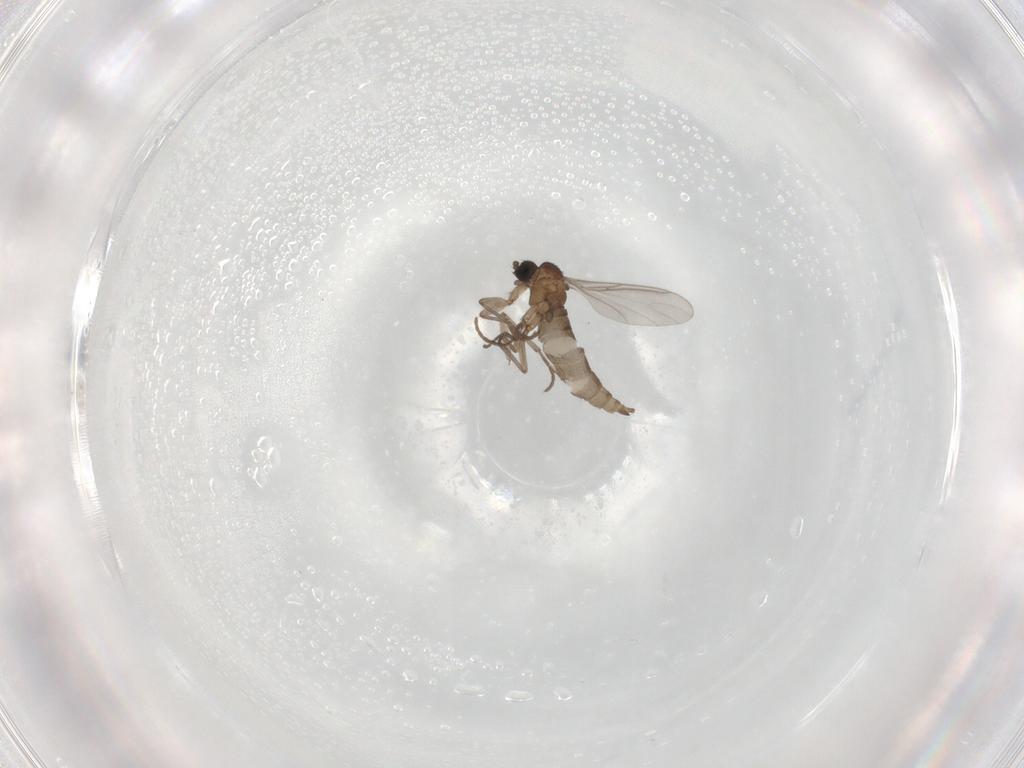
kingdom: Animalia
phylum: Arthropoda
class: Insecta
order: Diptera
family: Sciaridae
